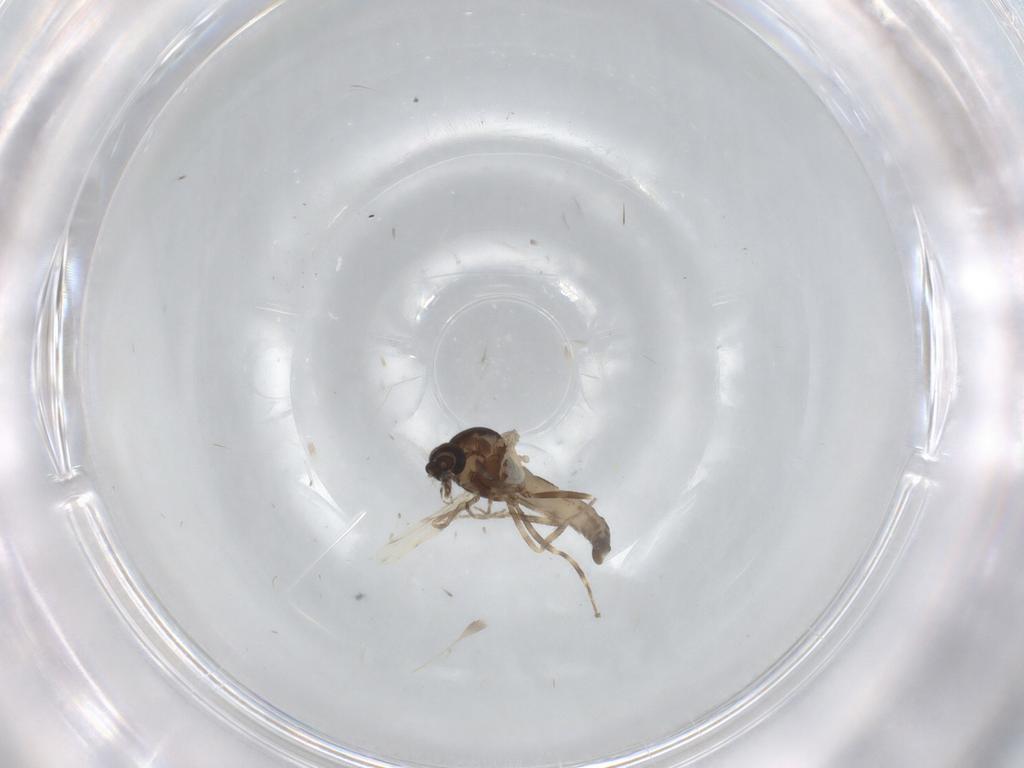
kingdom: Animalia
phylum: Arthropoda
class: Insecta
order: Diptera
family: Ceratopogonidae
